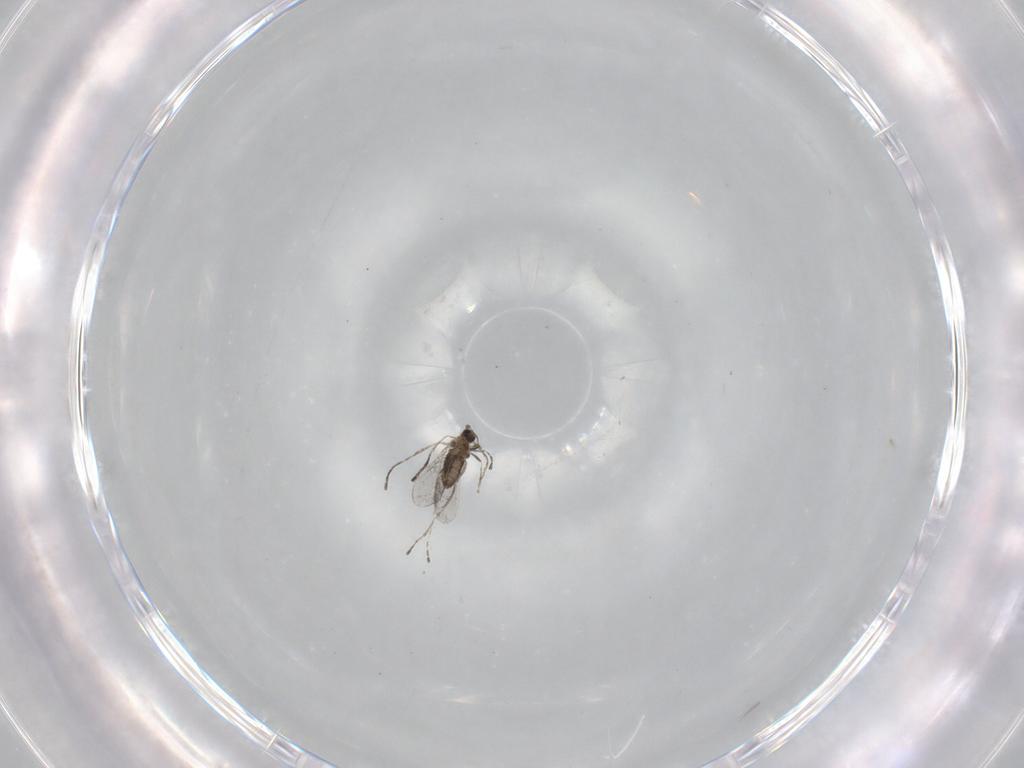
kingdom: Animalia
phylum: Arthropoda
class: Insecta
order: Diptera
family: Cecidomyiidae
